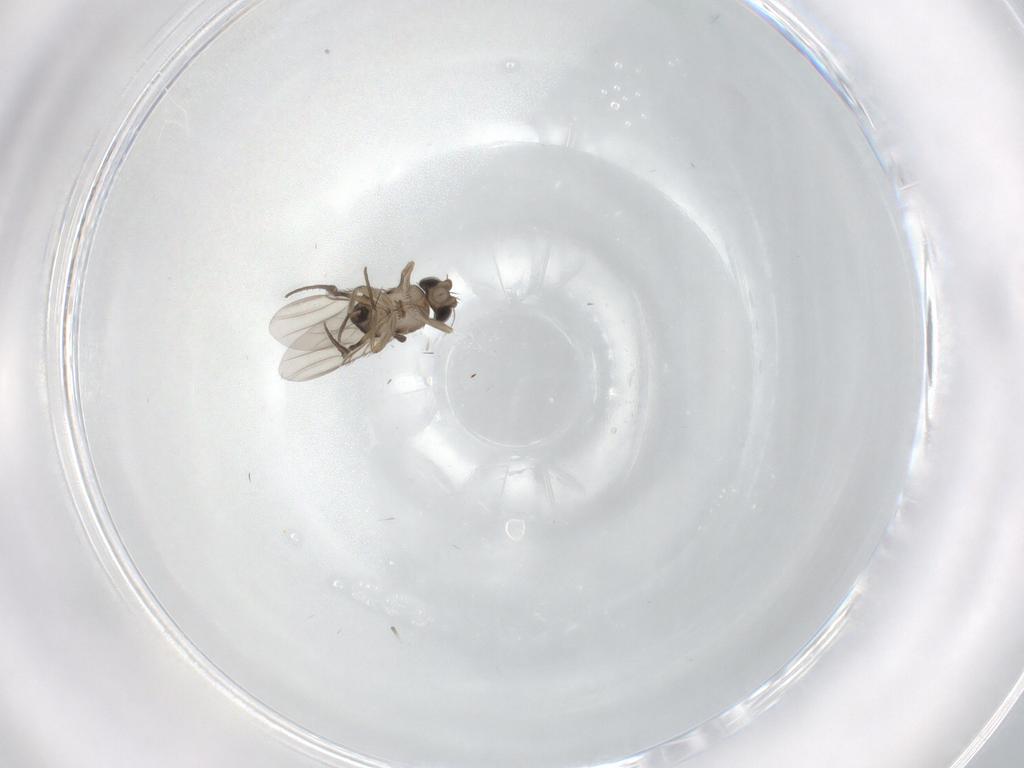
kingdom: Animalia
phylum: Arthropoda
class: Insecta
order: Diptera
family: Phoridae
